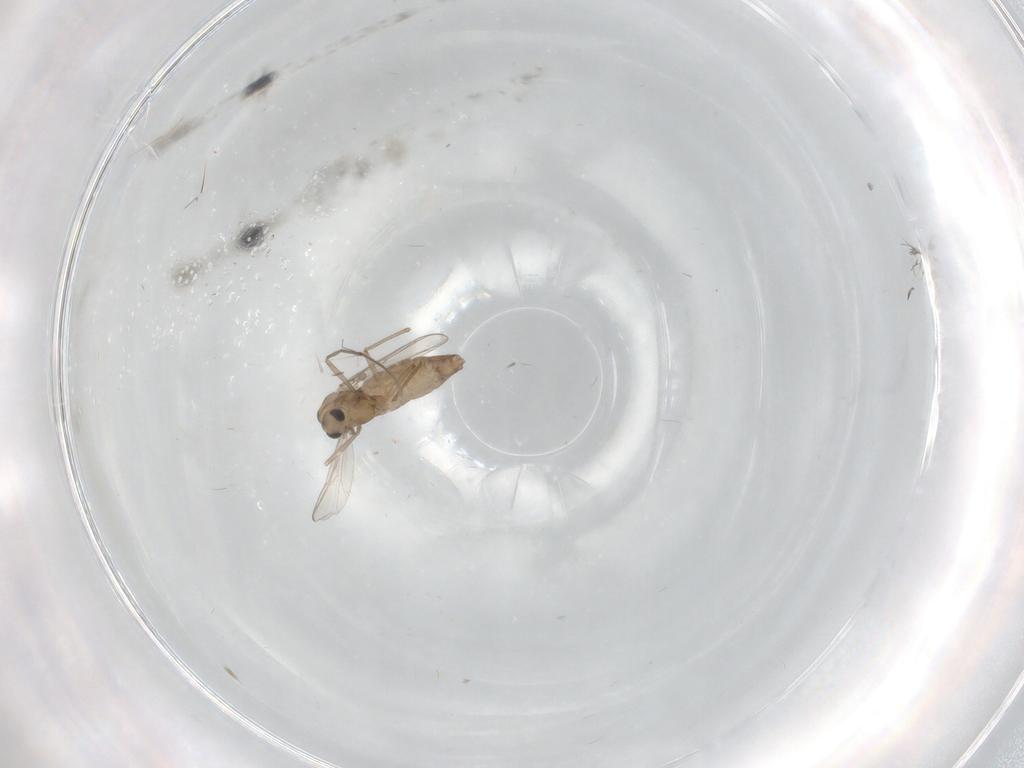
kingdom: Animalia
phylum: Arthropoda
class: Insecta
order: Diptera
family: Chironomidae
